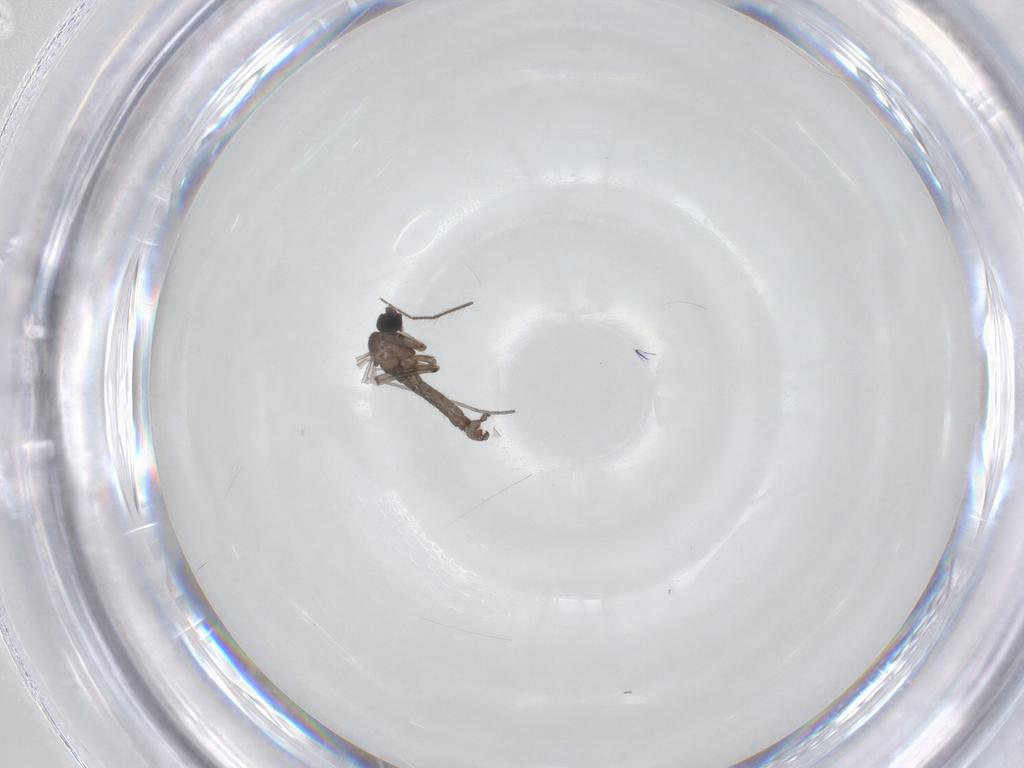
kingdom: Animalia
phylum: Arthropoda
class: Insecta
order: Diptera
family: Sciaridae
